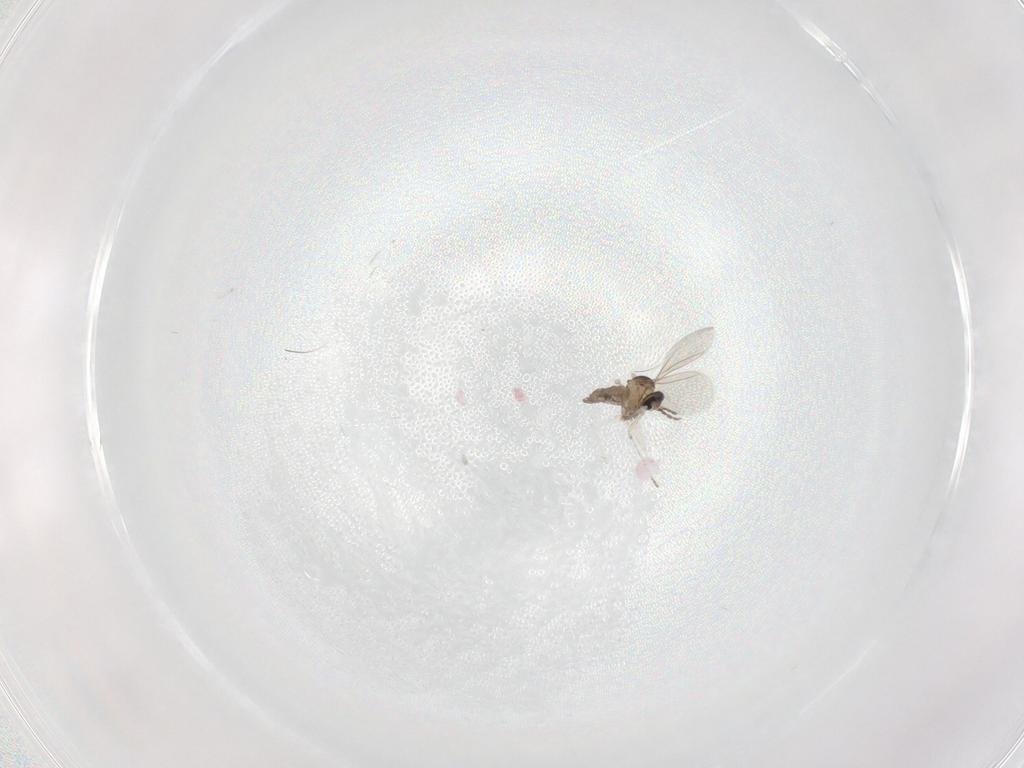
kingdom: Animalia
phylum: Arthropoda
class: Insecta
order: Diptera
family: Cecidomyiidae
